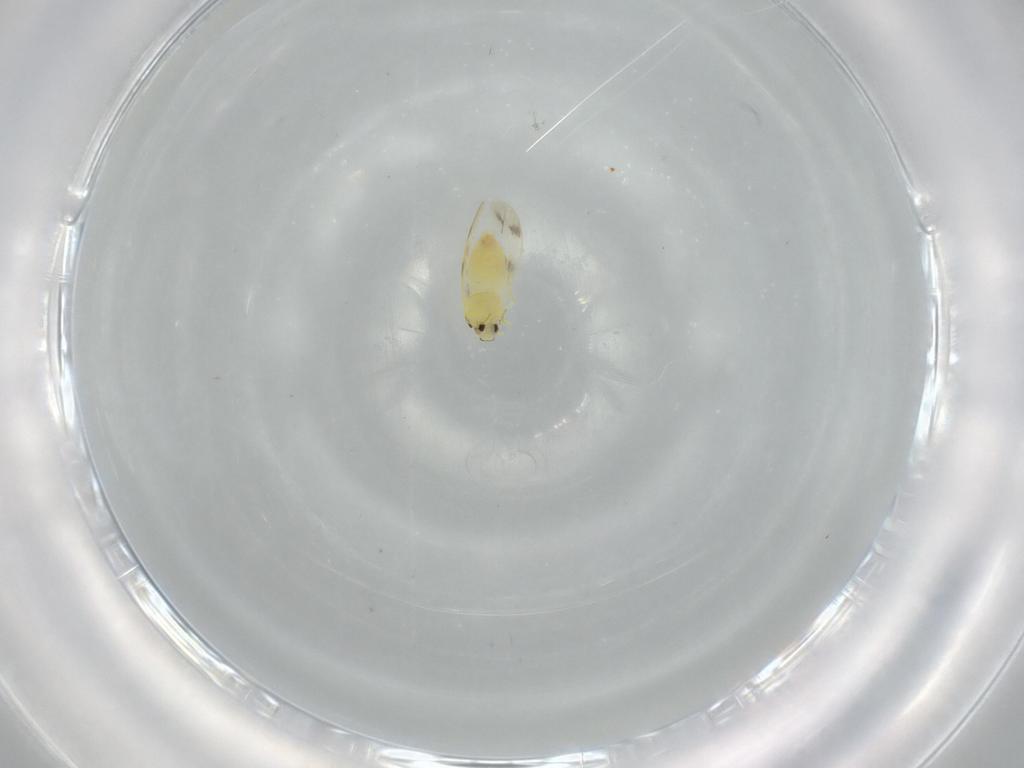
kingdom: Animalia
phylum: Arthropoda
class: Insecta
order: Hemiptera
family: Aleyrodidae
